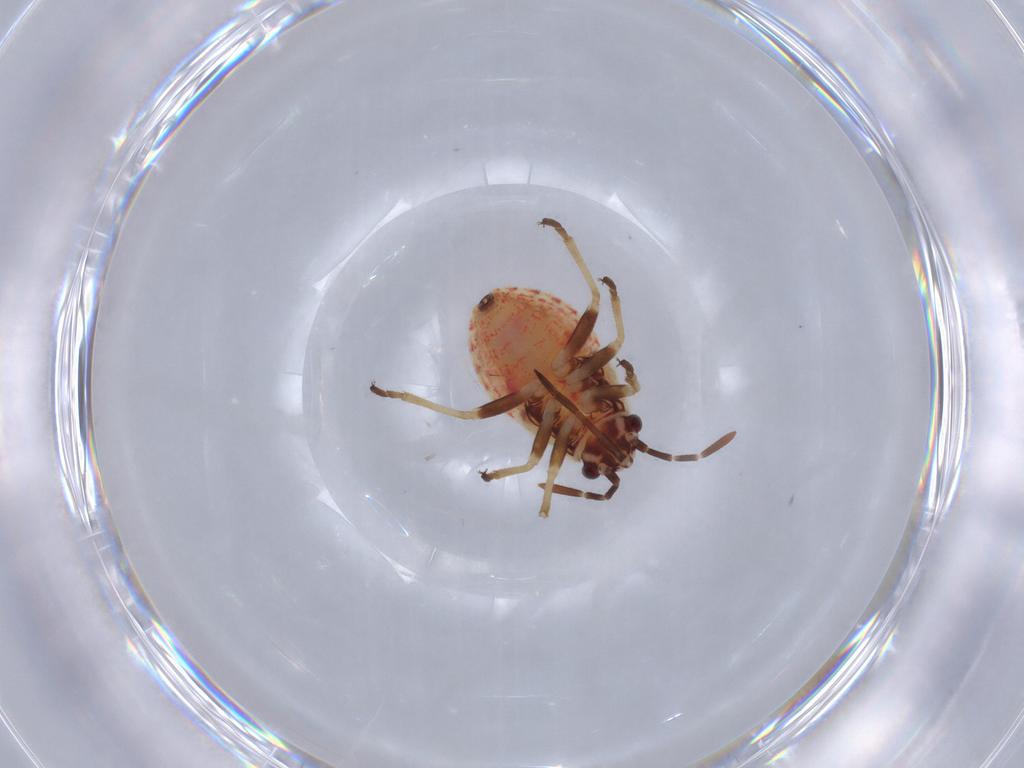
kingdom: Animalia
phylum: Arthropoda
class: Insecta
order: Hemiptera
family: Lygaeidae
